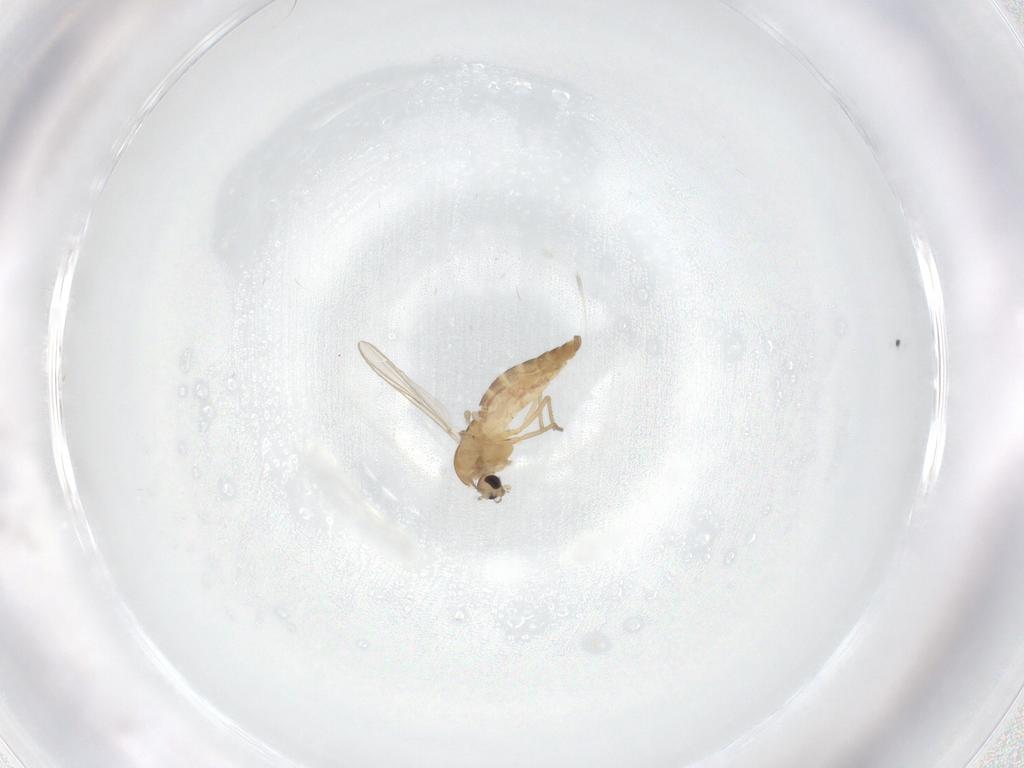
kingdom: Animalia
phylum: Arthropoda
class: Insecta
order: Diptera
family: Chironomidae
